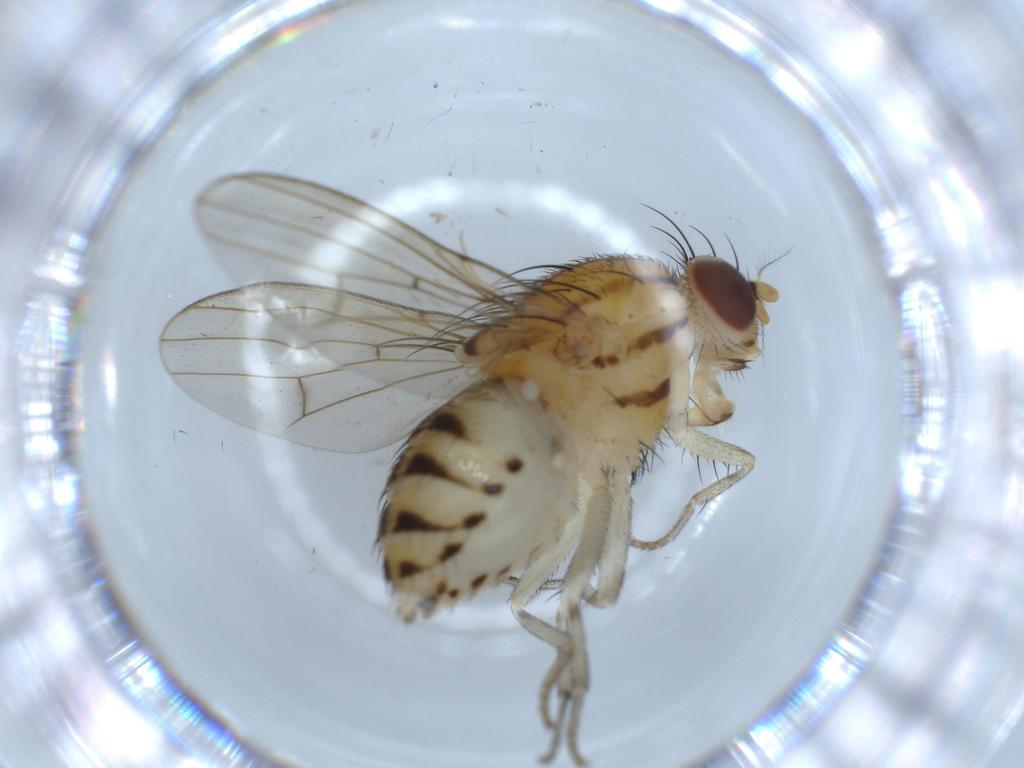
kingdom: Animalia
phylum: Arthropoda
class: Insecta
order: Diptera
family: Lauxaniidae
